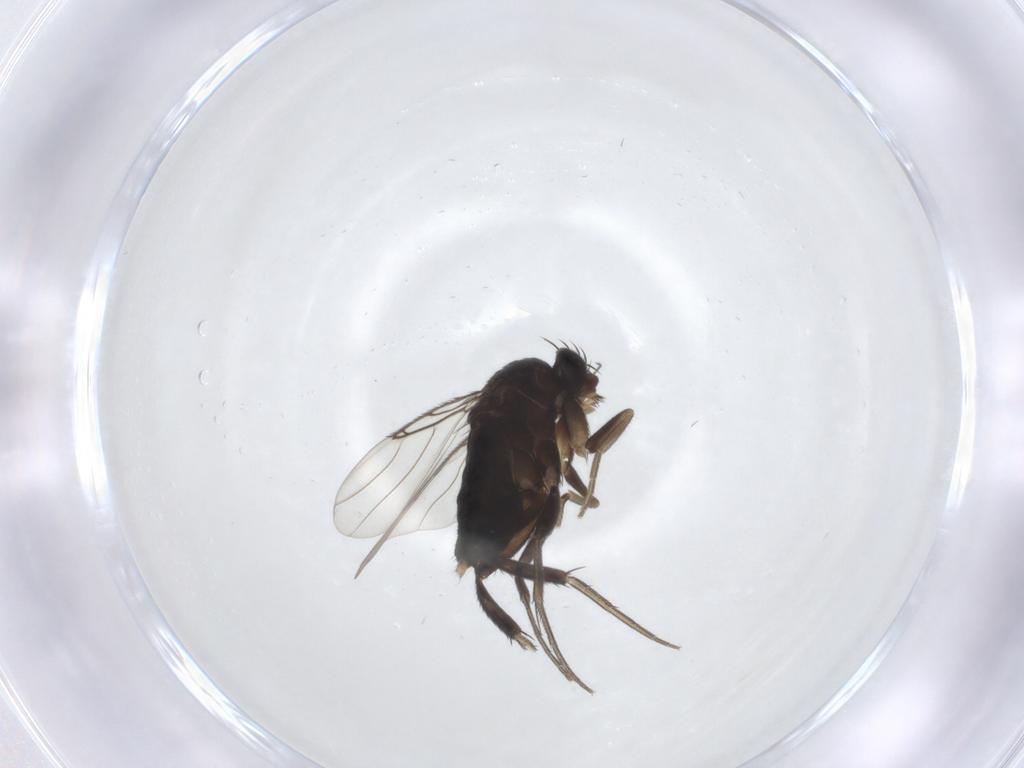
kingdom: Animalia
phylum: Arthropoda
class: Insecta
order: Diptera
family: Phoridae
